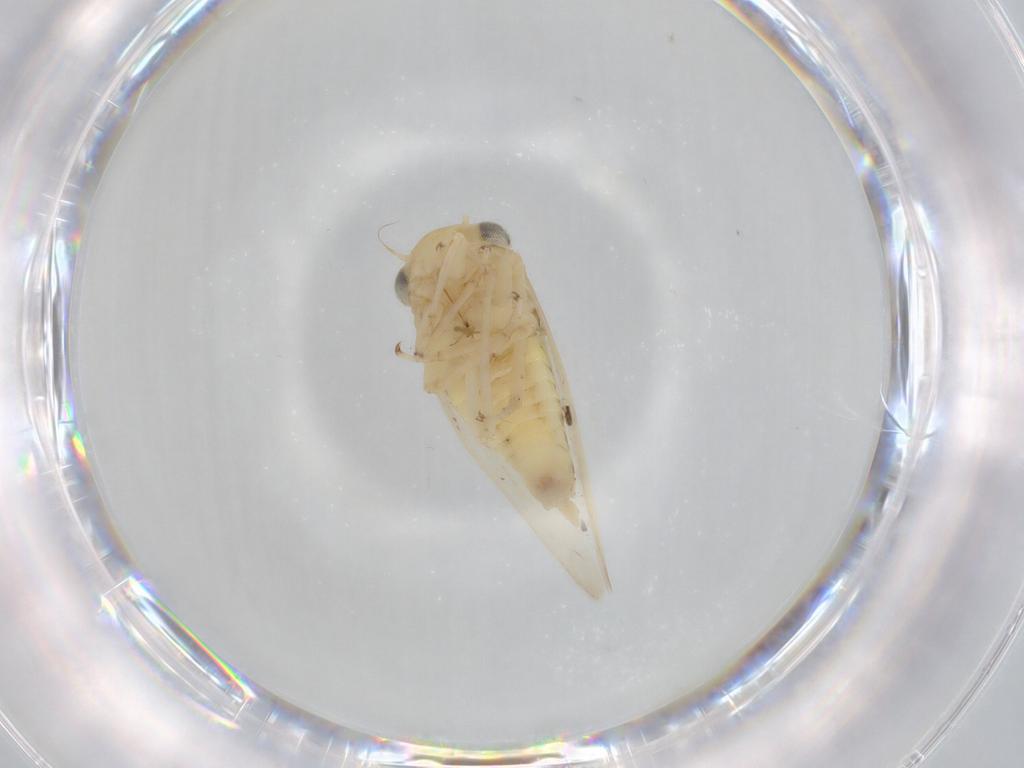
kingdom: Animalia
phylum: Arthropoda
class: Insecta
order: Hemiptera
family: Cicadellidae
